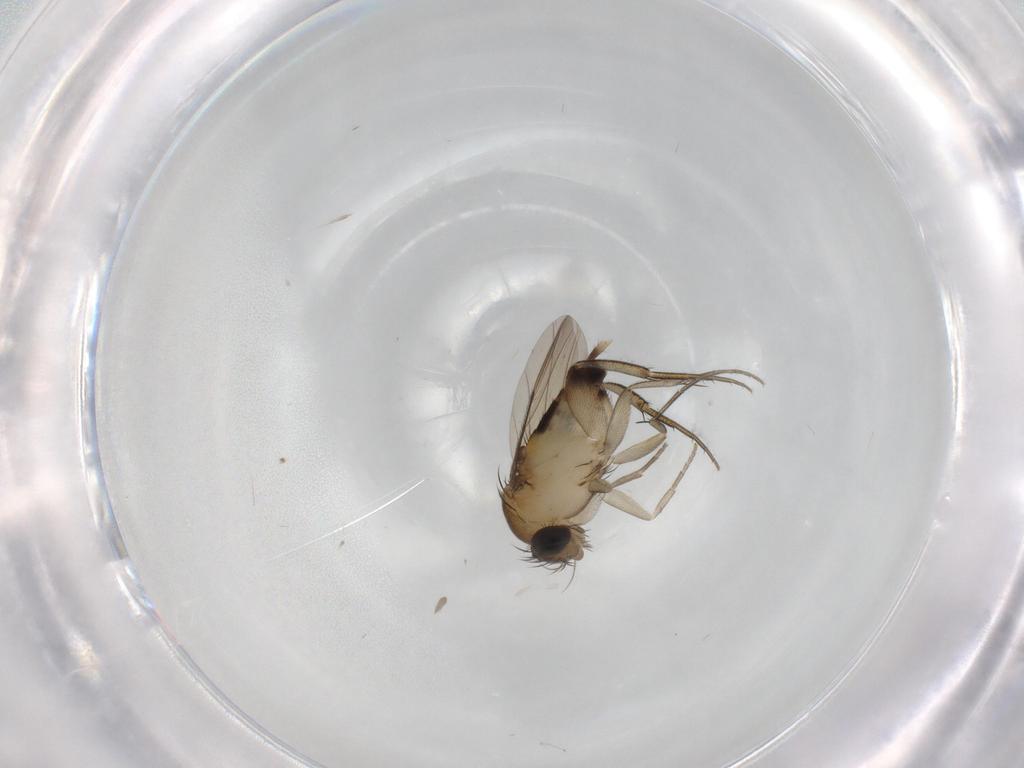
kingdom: Animalia
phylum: Arthropoda
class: Insecta
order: Diptera
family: Phoridae
